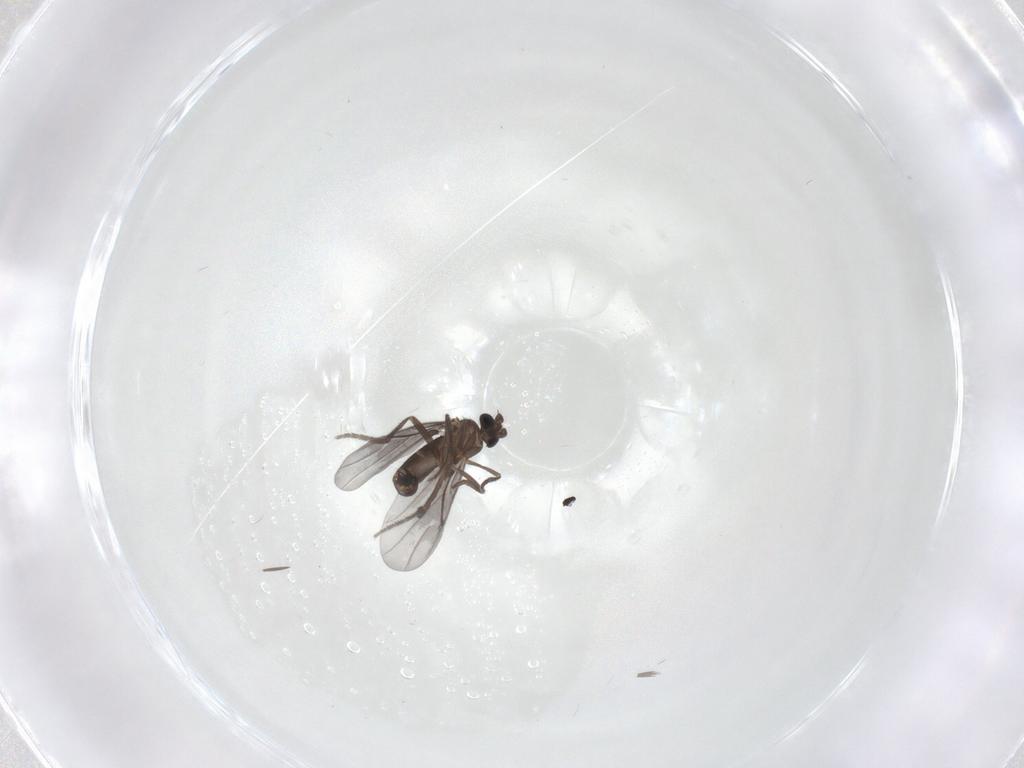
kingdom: Animalia
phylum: Arthropoda
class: Insecta
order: Diptera
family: Phoridae
